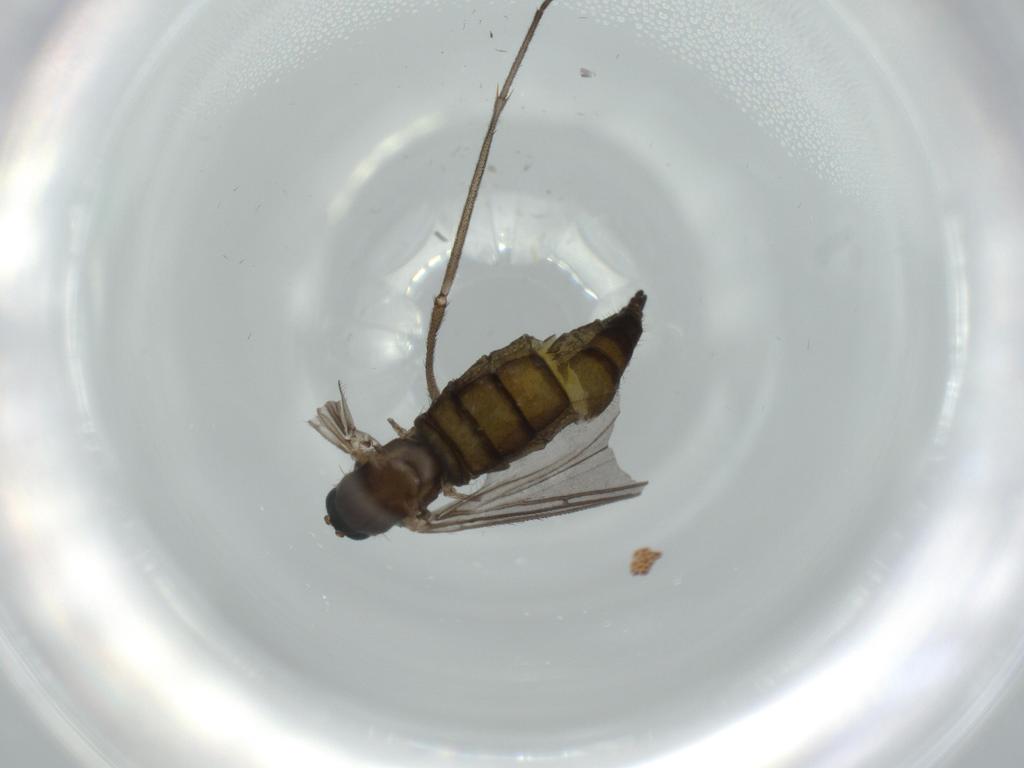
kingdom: Animalia
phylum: Arthropoda
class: Insecta
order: Diptera
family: Sciaridae
